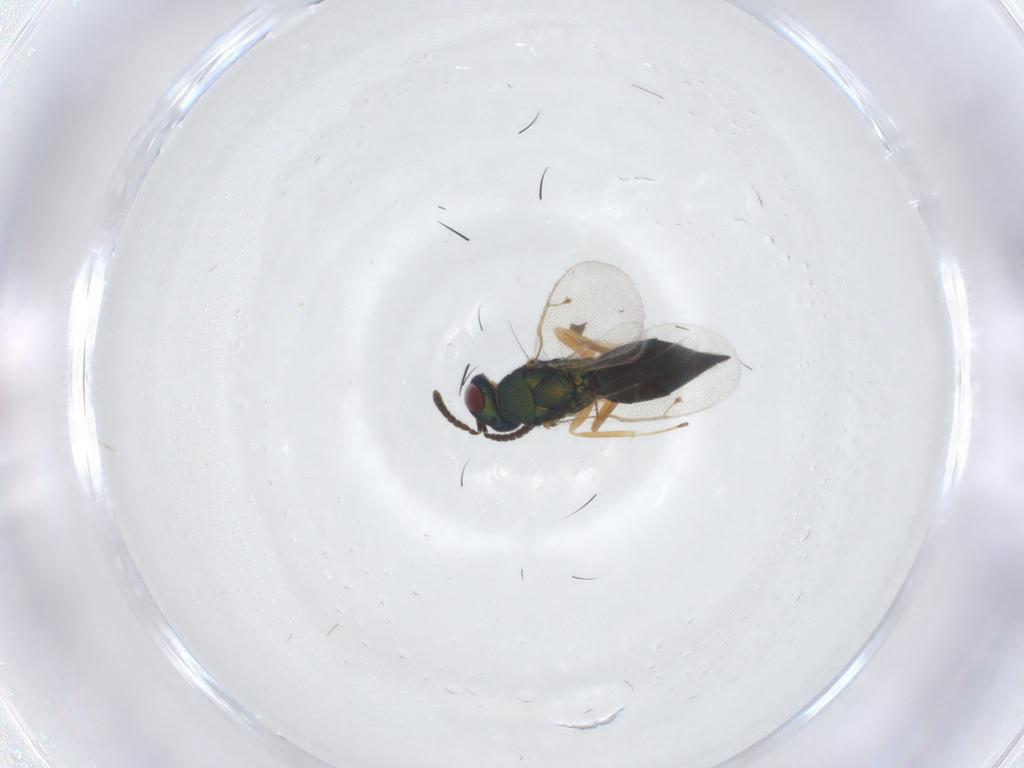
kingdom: Animalia
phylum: Arthropoda
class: Insecta
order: Hymenoptera
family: Pteromalidae
